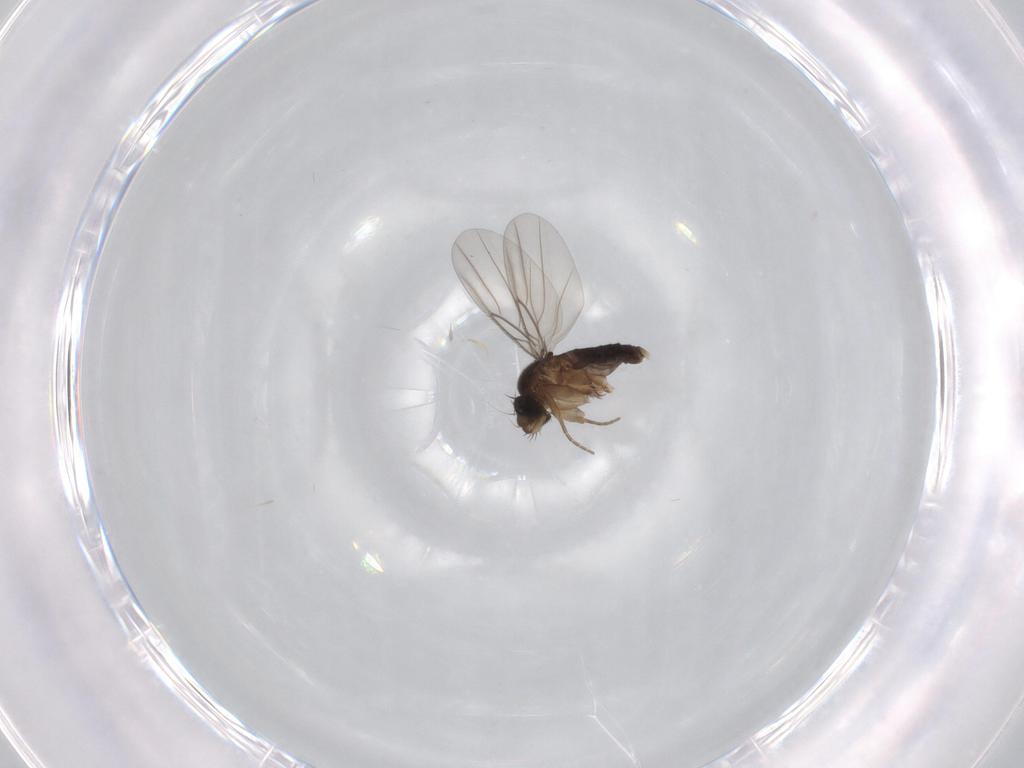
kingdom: Animalia
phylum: Arthropoda
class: Insecta
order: Diptera
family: Phoridae
